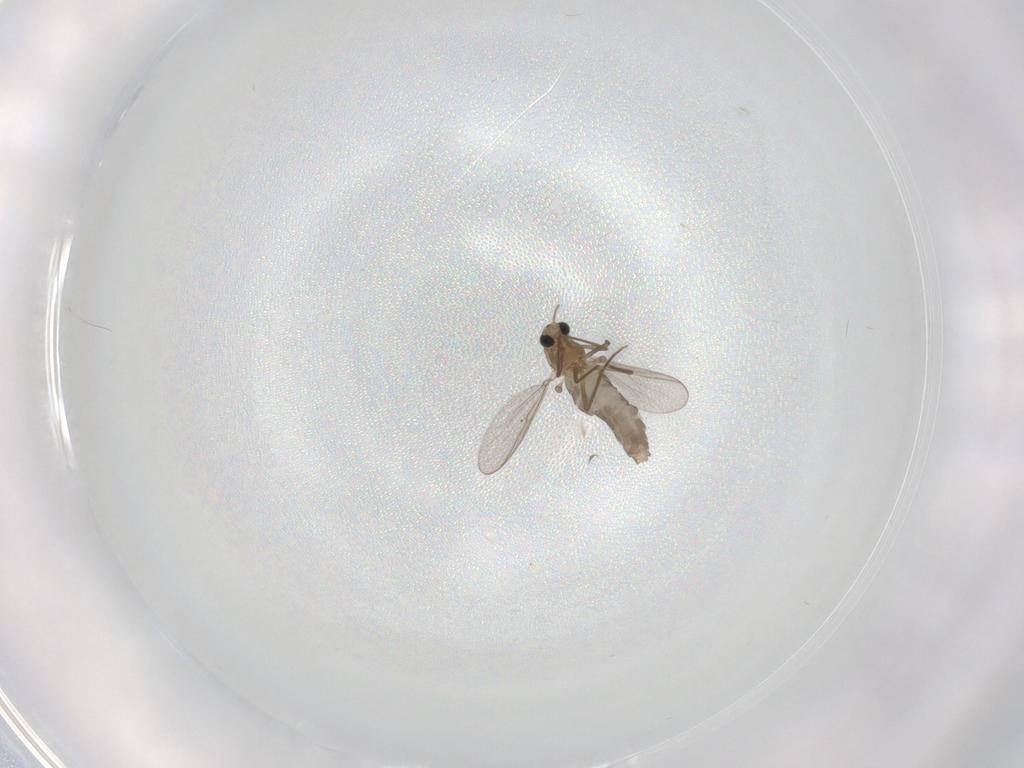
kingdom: Animalia
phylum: Arthropoda
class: Insecta
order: Diptera
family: Chironomidae
